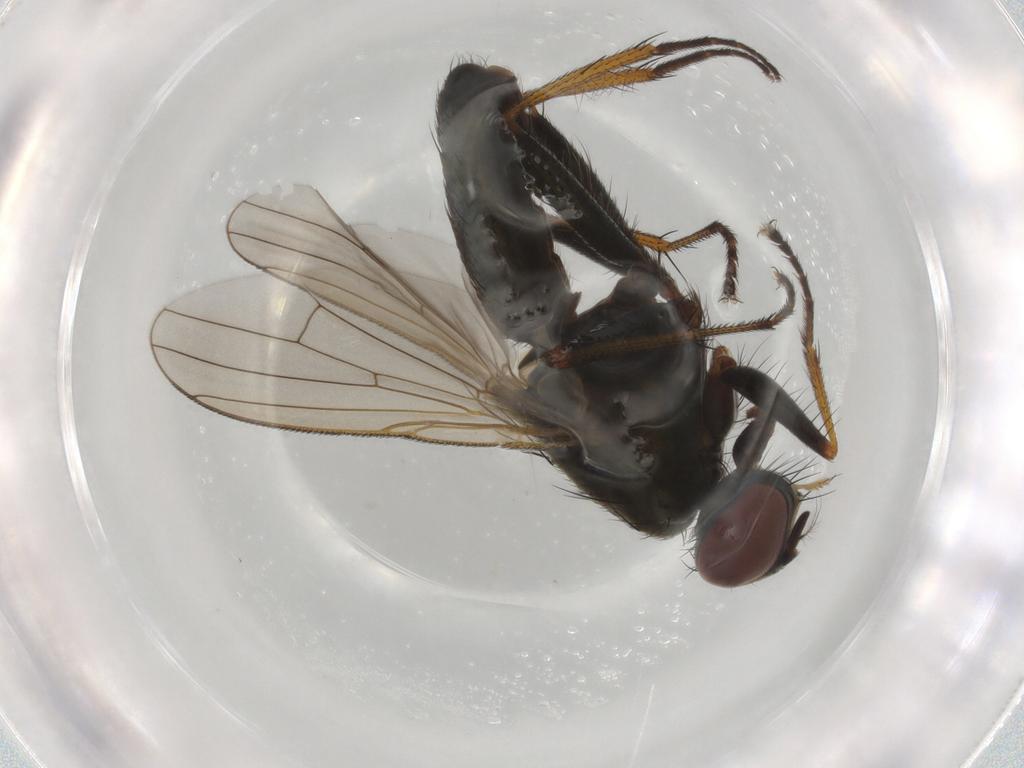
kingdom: Animalia
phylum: Arthropoda
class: Insecta
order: Diptera
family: Muscidae
